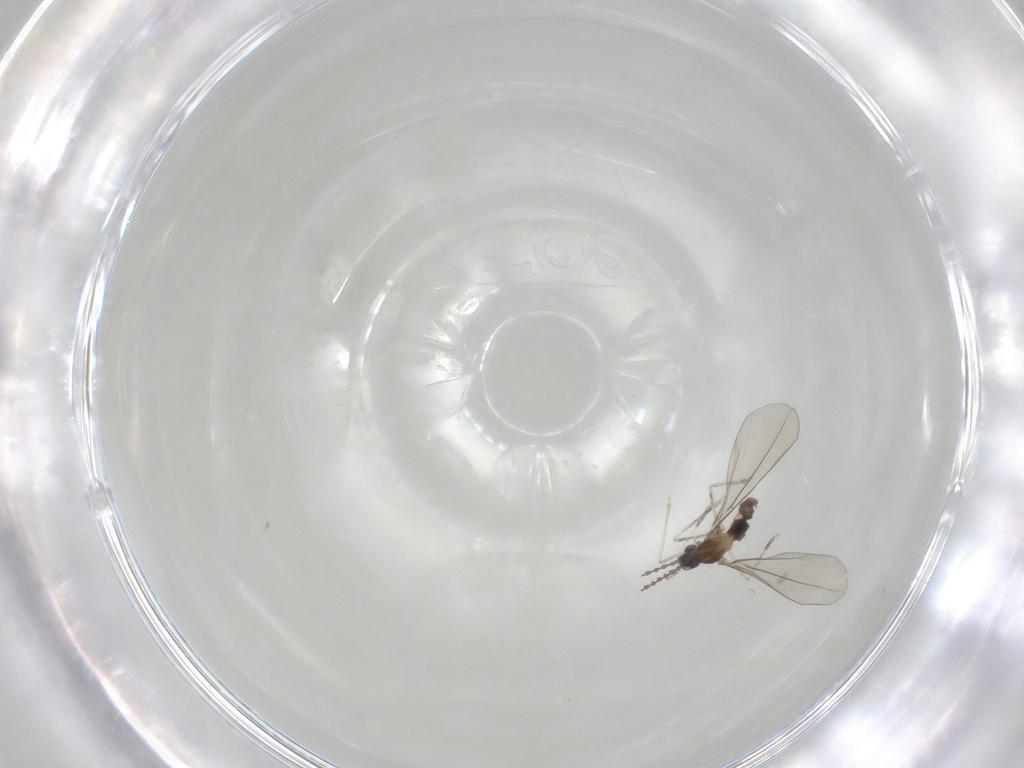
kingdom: Animalia
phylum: Arthropoda
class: Insecta
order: Diptera
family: Cecidomyiidae
